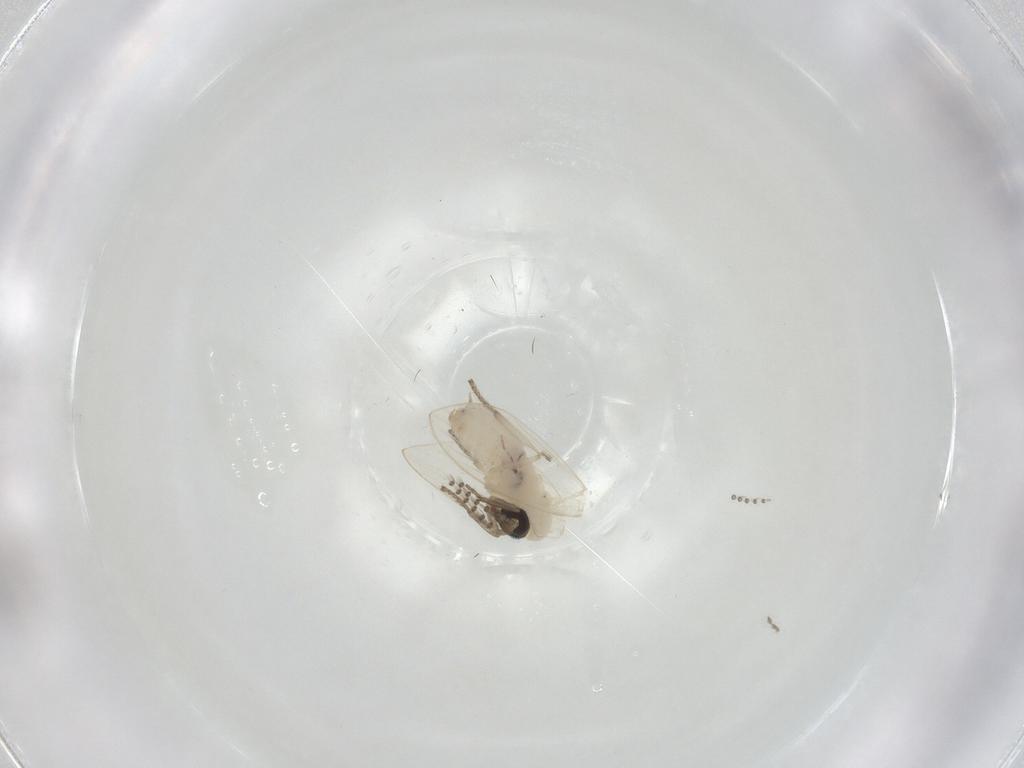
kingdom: Animalia
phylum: Arthropoda
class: Insecta
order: Diptera
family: Psychodidae
